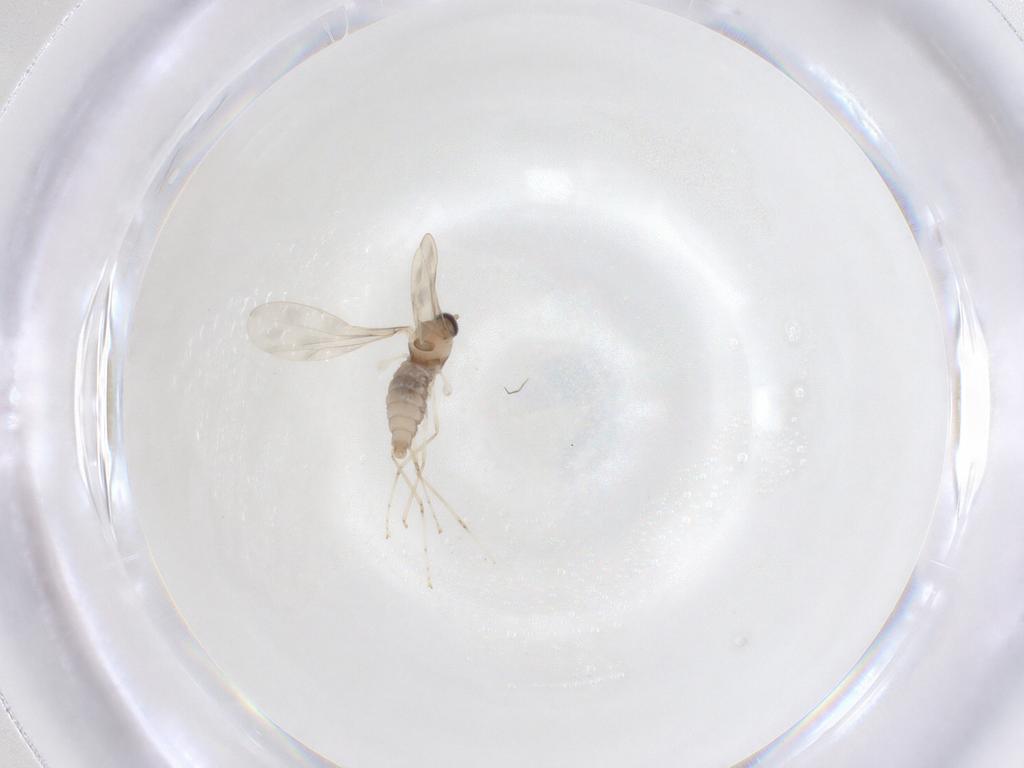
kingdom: Animalia
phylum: Arthropoda
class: Insecta
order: Diptera
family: Cecidomyiidae
